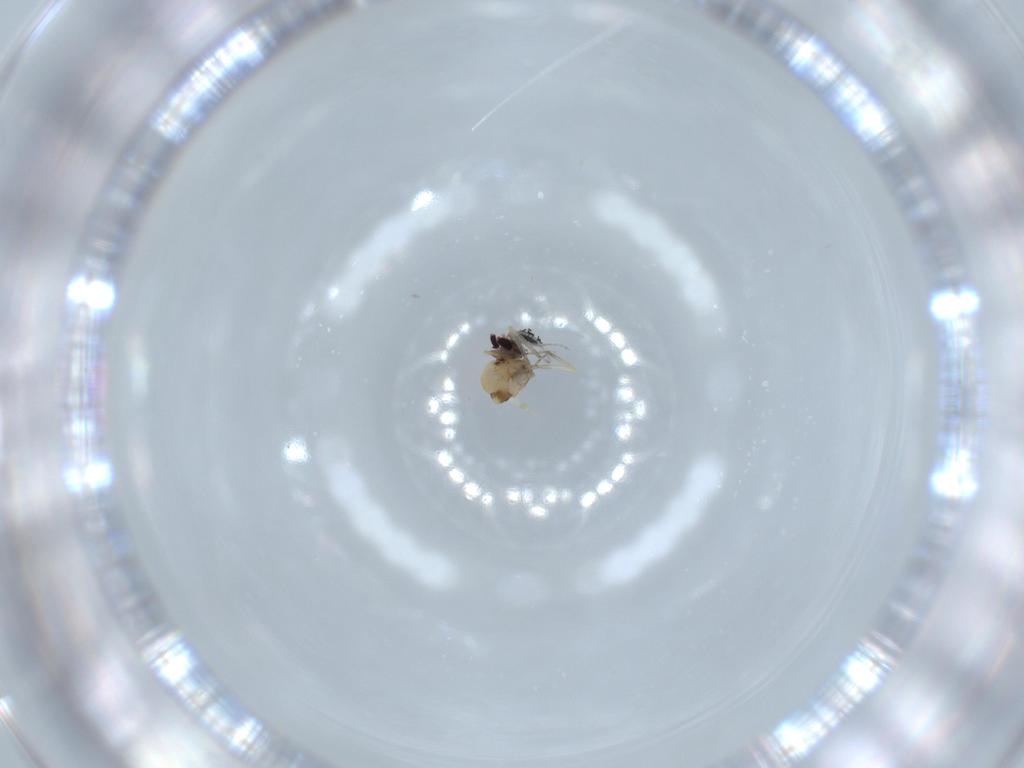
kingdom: Animalia
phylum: Arthropoda
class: Insecta
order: Diptera
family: Ceratopogonidae
